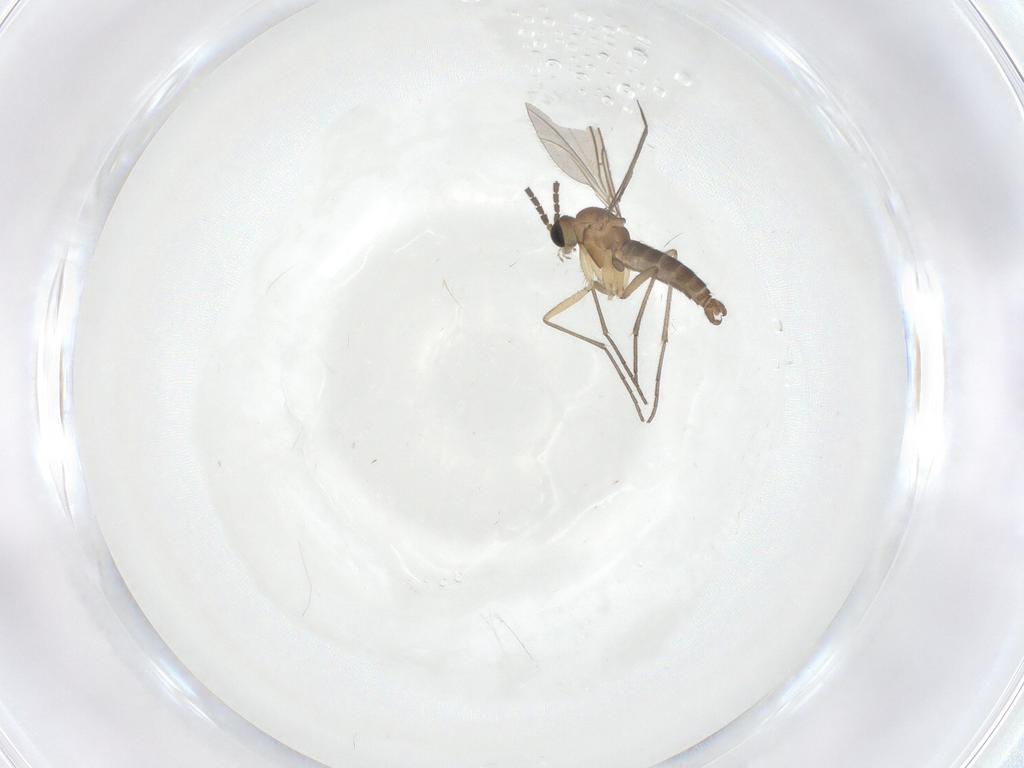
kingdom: Animalia
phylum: Arthropoda
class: Insecta
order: Diptera
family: Sciaridae
